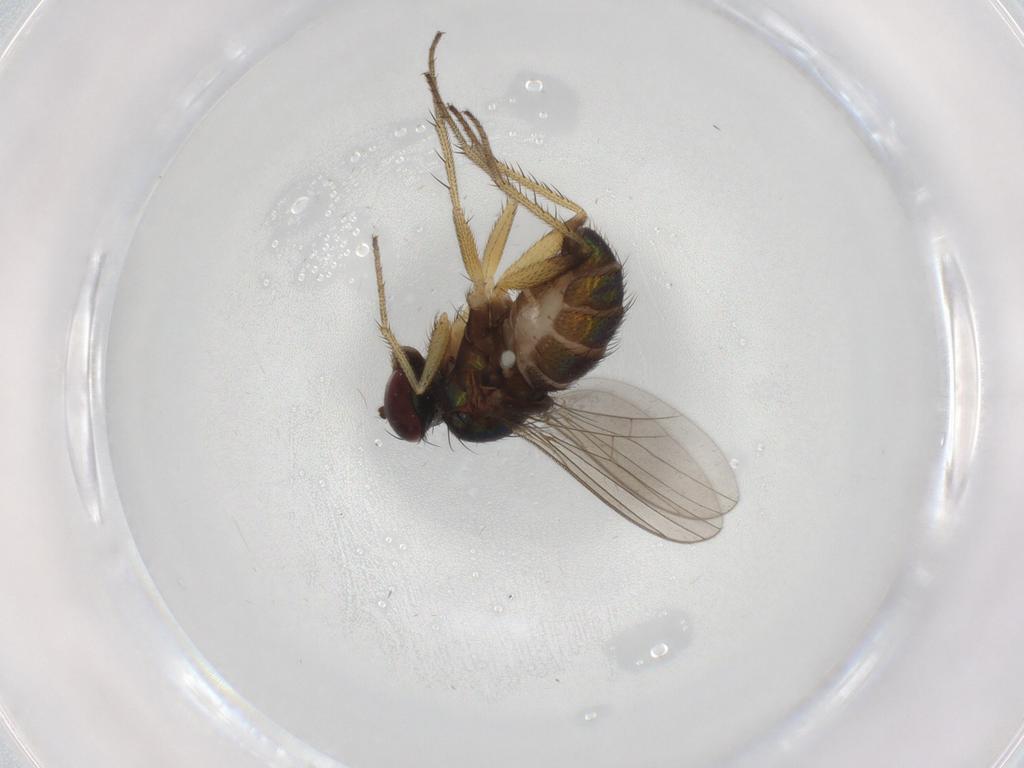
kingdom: Animalia
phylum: Arthropoda
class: Insecta
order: Diptera
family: Dolichopodidae
